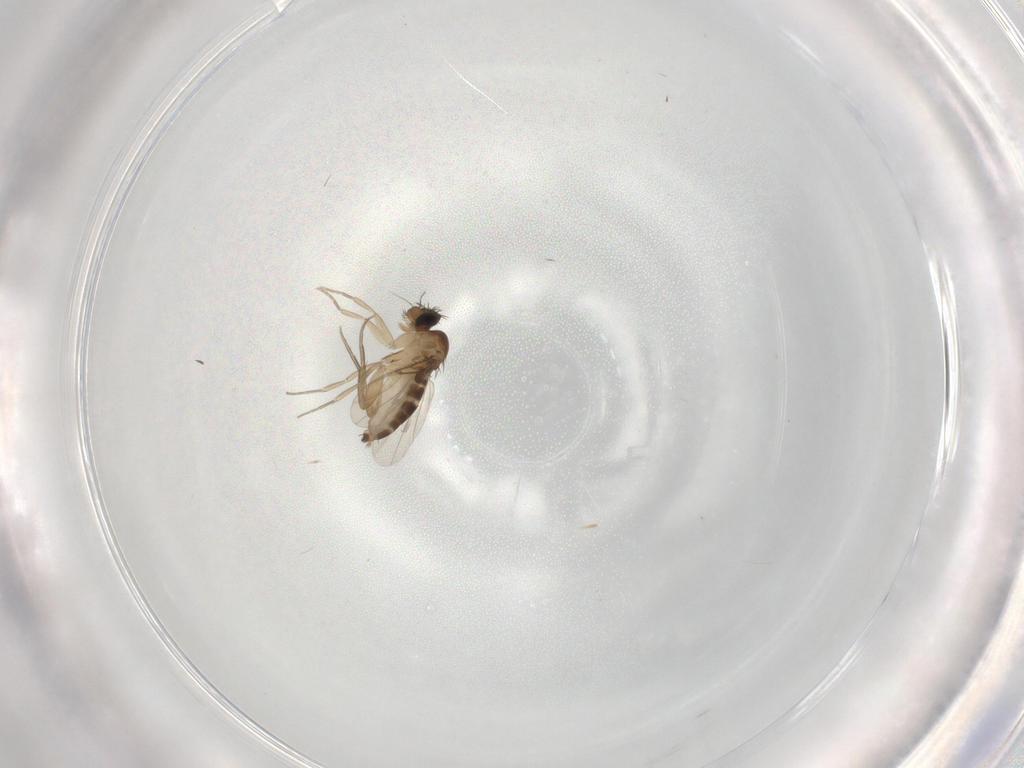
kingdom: Animalia
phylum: Arthropoda
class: Insecta
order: Diptera
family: Phoridae
